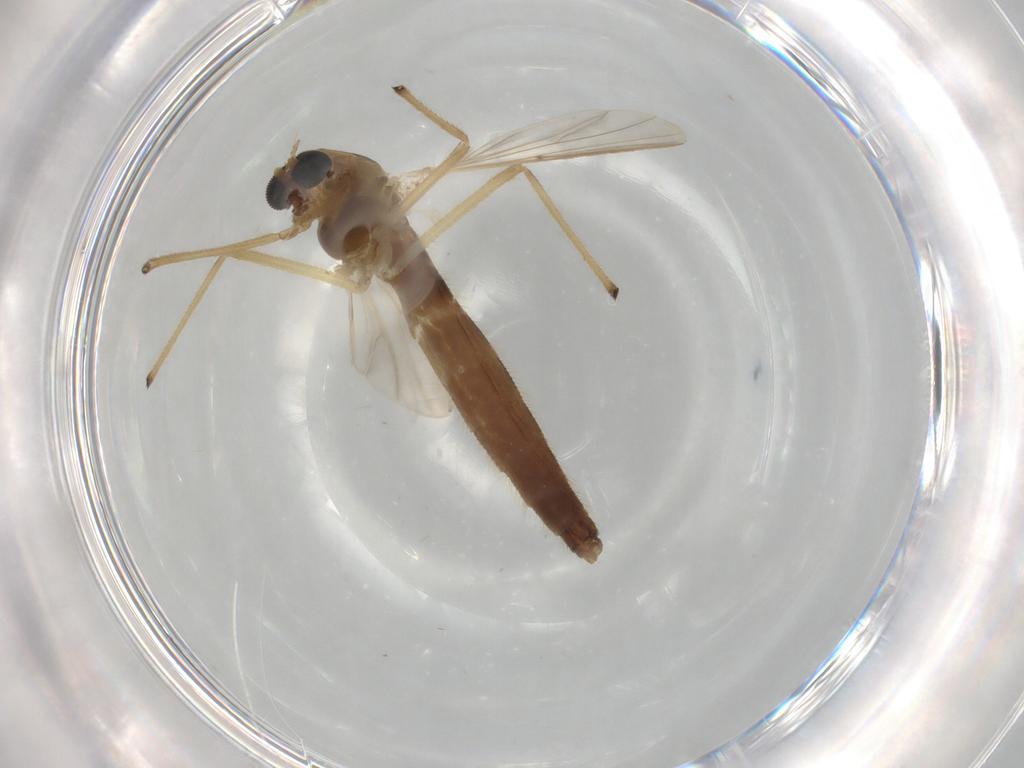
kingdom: Animalia
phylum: Arthropoda
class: Insecta
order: Diptera
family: Chironomidae
